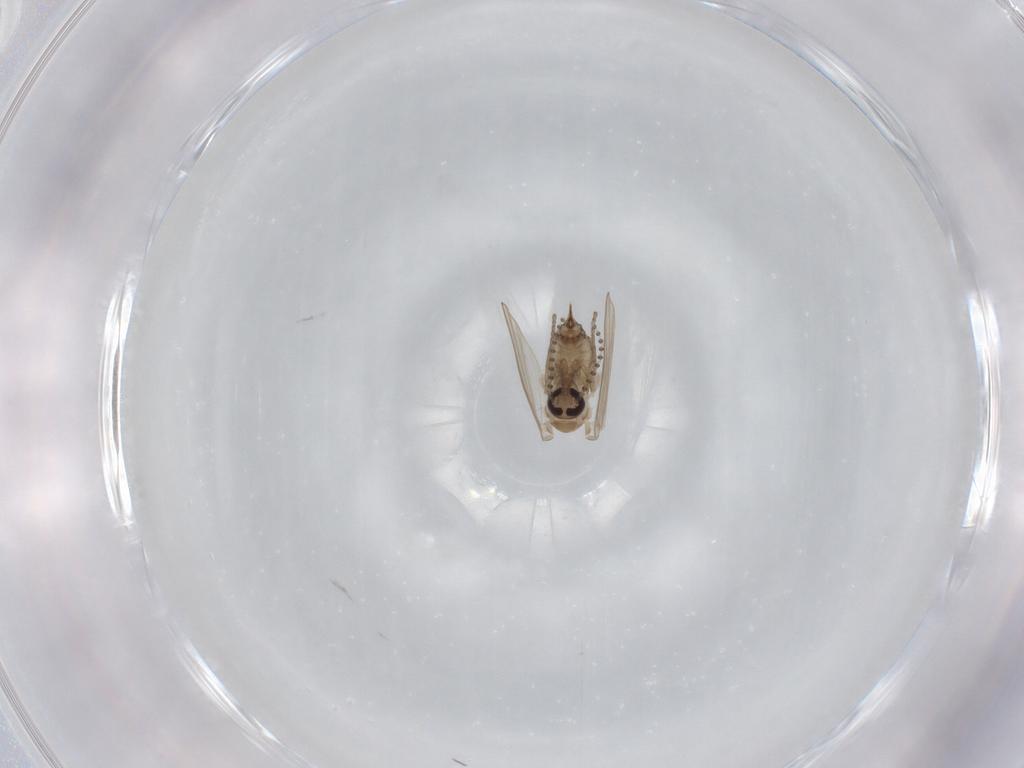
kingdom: Animalia
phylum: Arthropoda
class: Insecta
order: Diptera
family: Psychodidae
